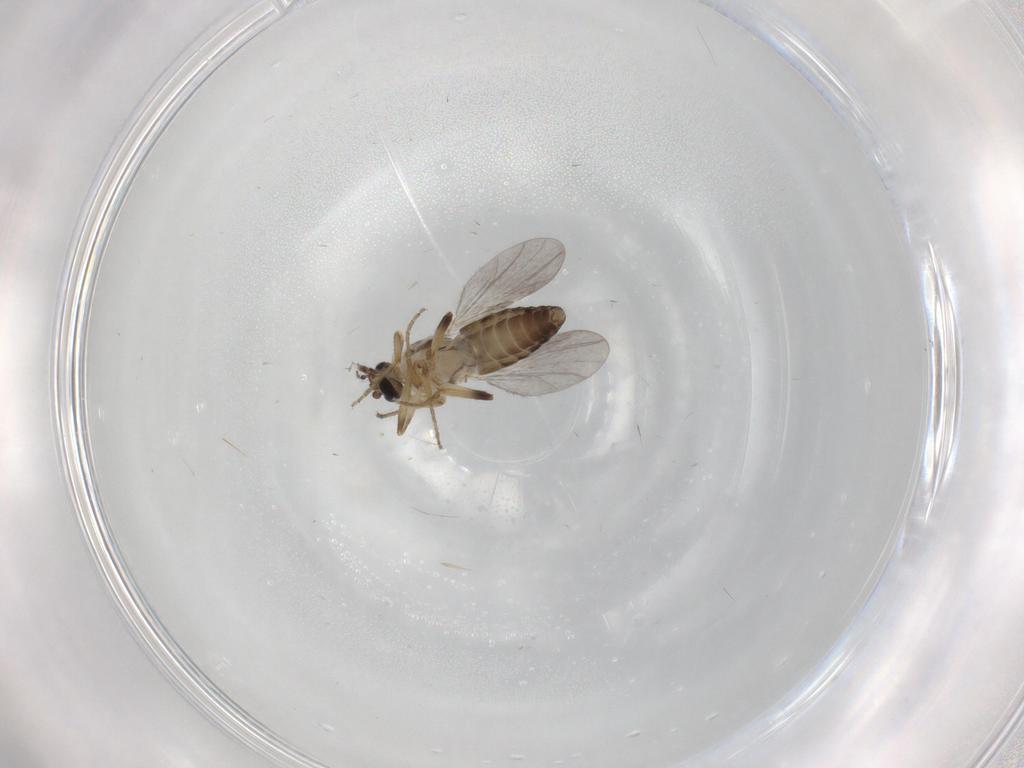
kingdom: Animalia
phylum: Arthropoda
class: Insecta
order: Diptera
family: Ceratopogonidae
